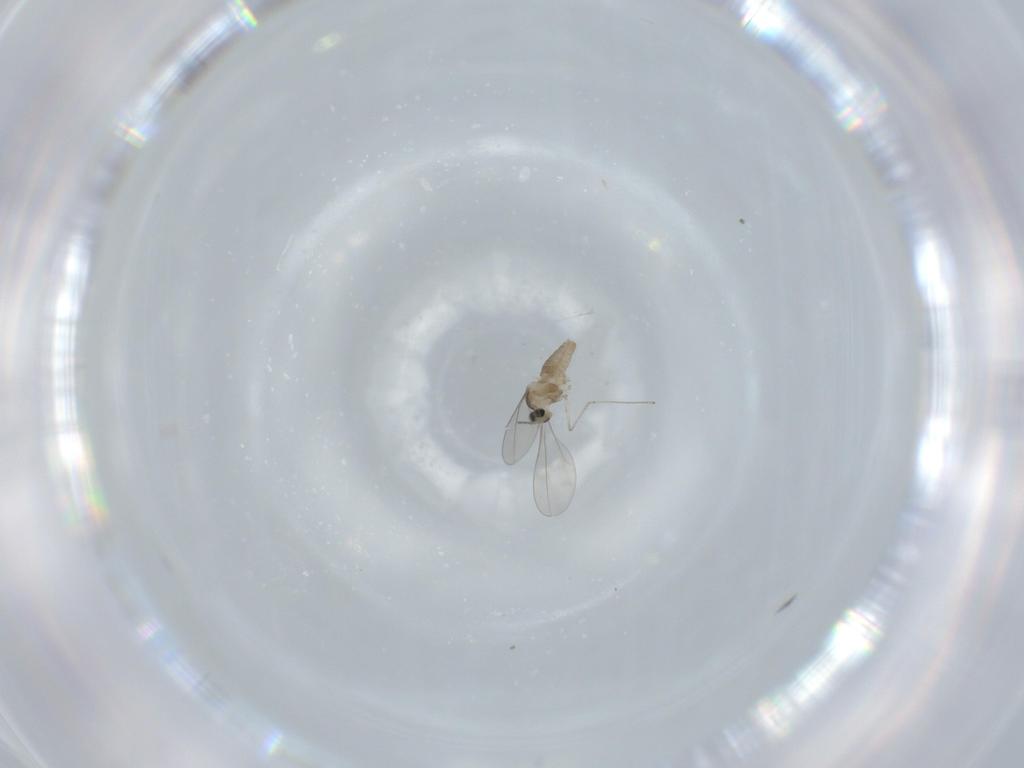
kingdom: Animalia
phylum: Arthropoda
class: Insecta
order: Diptera
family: Cecidomyiidae
